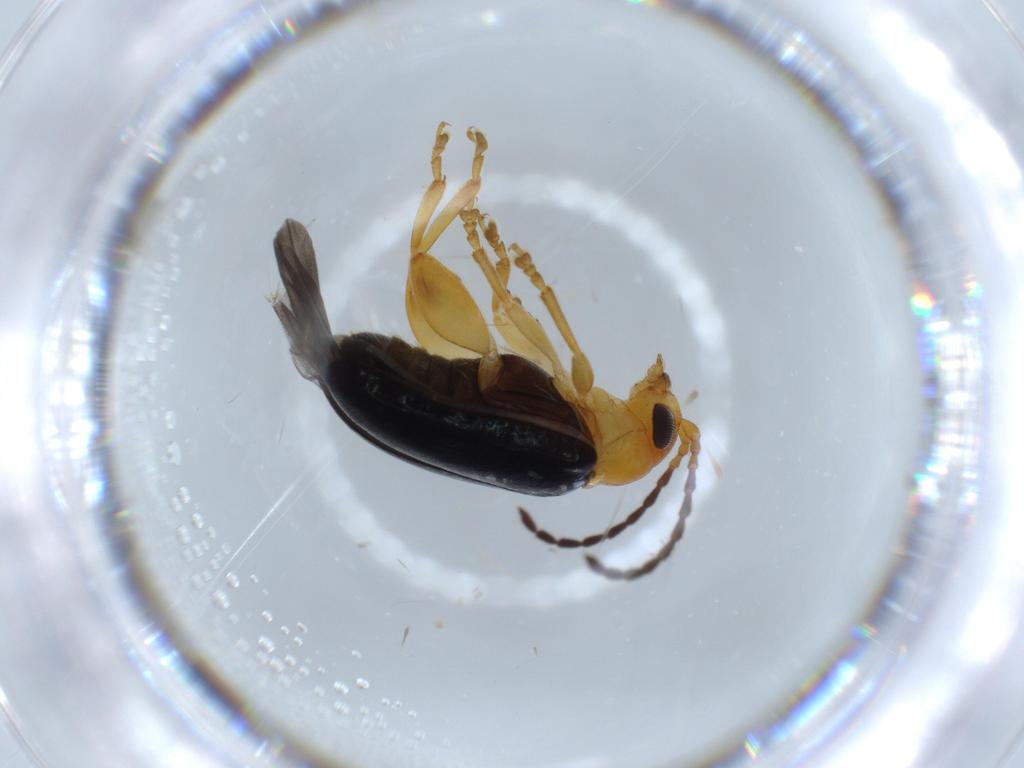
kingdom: Animalia
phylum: Arthropoda
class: Insecta
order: Coleoptera
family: Chrysomelidae
